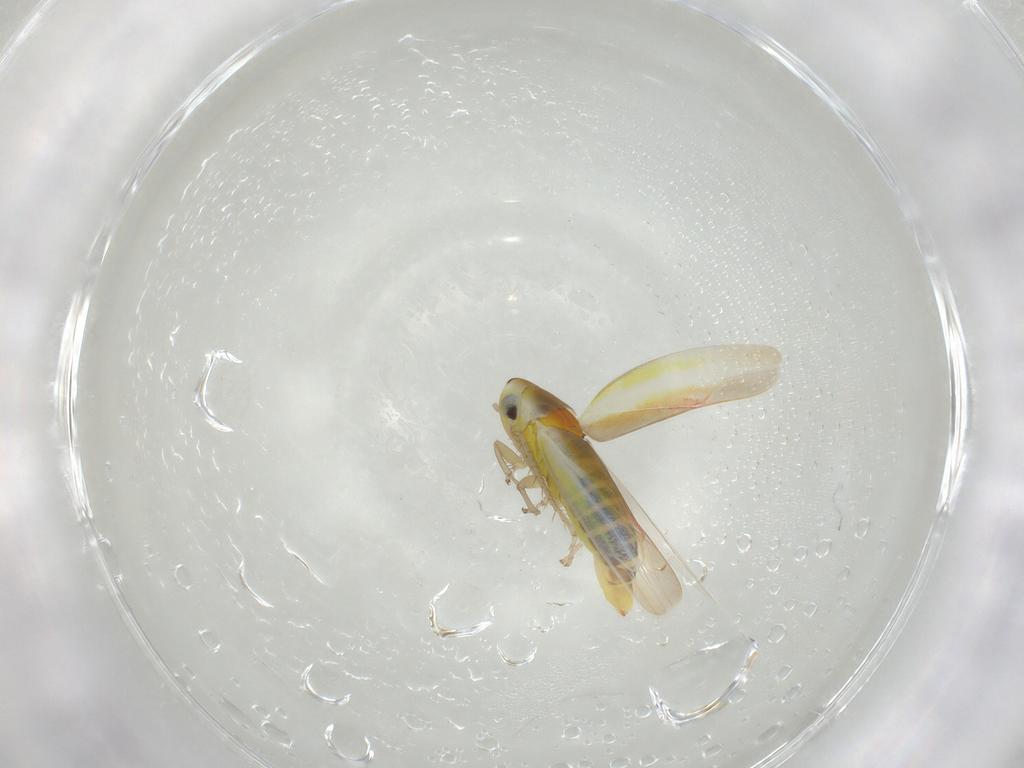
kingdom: Animalia
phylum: Arthropoda
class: Insecta
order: Hemiptera
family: Cicadellidae
